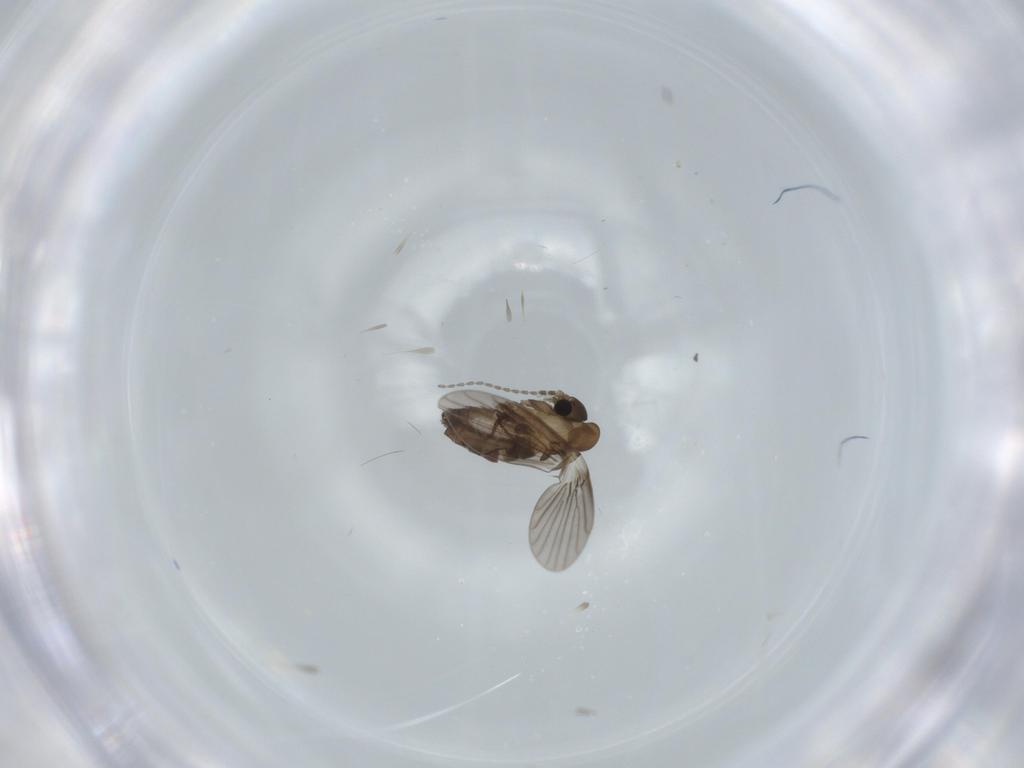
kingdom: Animalia
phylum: Arthropoda
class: Insecta
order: Diptera
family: Psychodidae
